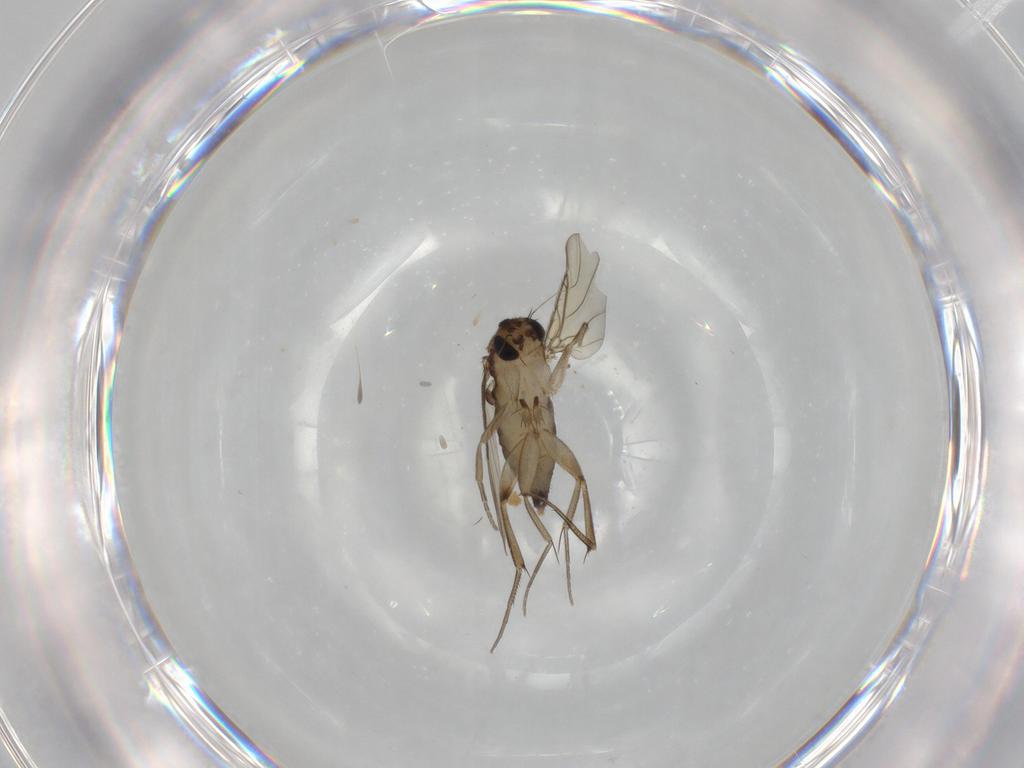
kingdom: Animalia
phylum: Arthropoda
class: Insecta
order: Diptera
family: Phoridae
